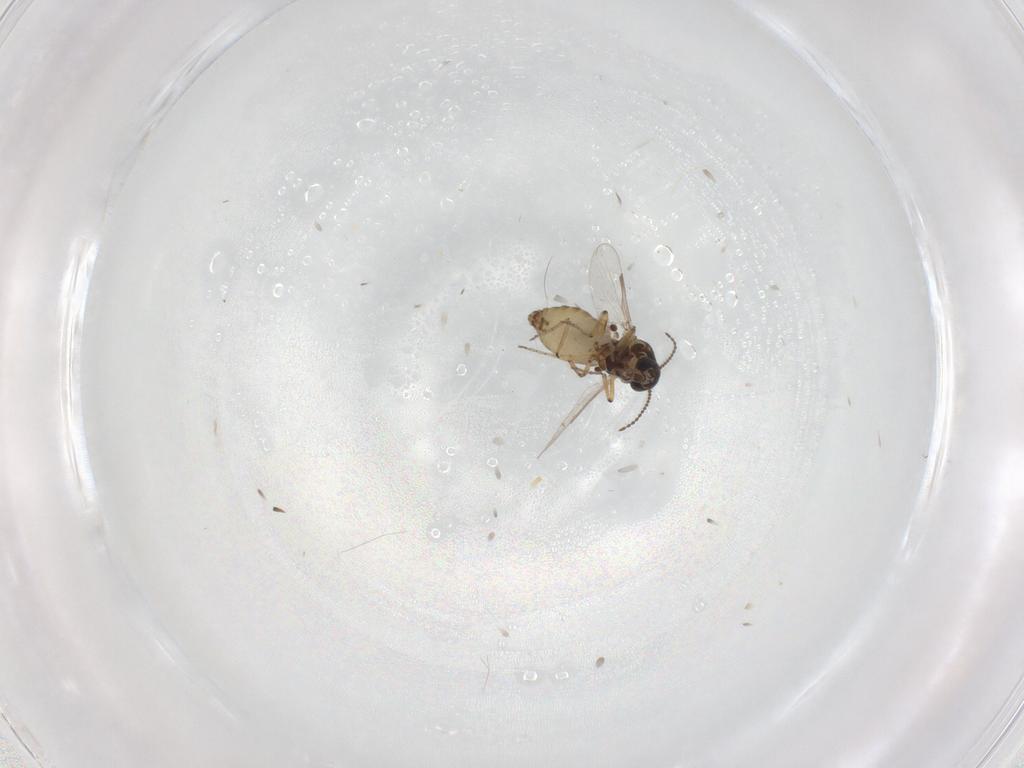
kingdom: Animalia
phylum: Arthropoda
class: Insecta
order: Diptera
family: Ceratopogonidae
